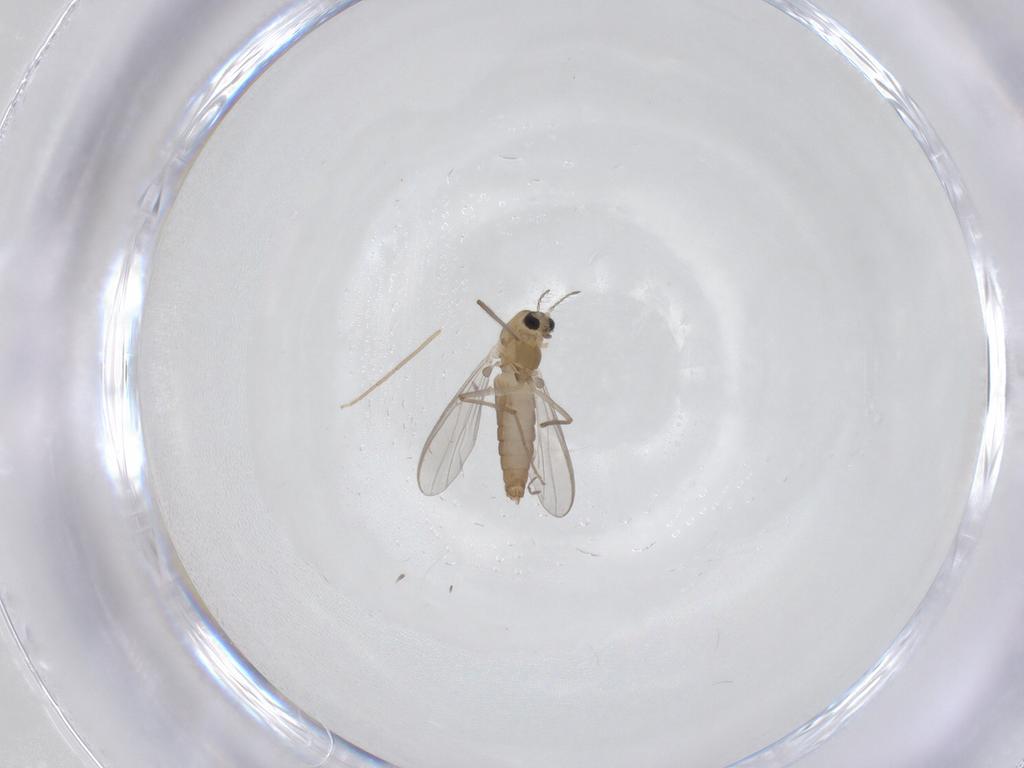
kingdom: Animalia
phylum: Arthropoda
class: Insecta
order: Diptera
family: Chironomidae
